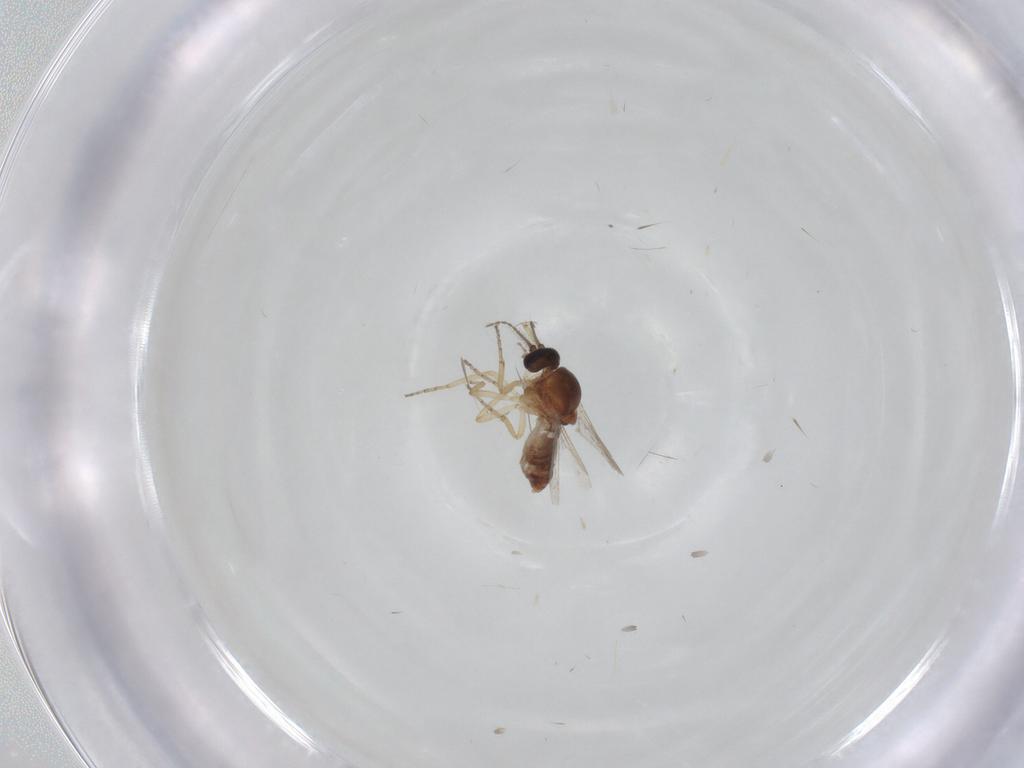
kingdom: Animalia
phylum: Arthropoda
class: Insecta
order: Diptera
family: Ceratopogonidae
